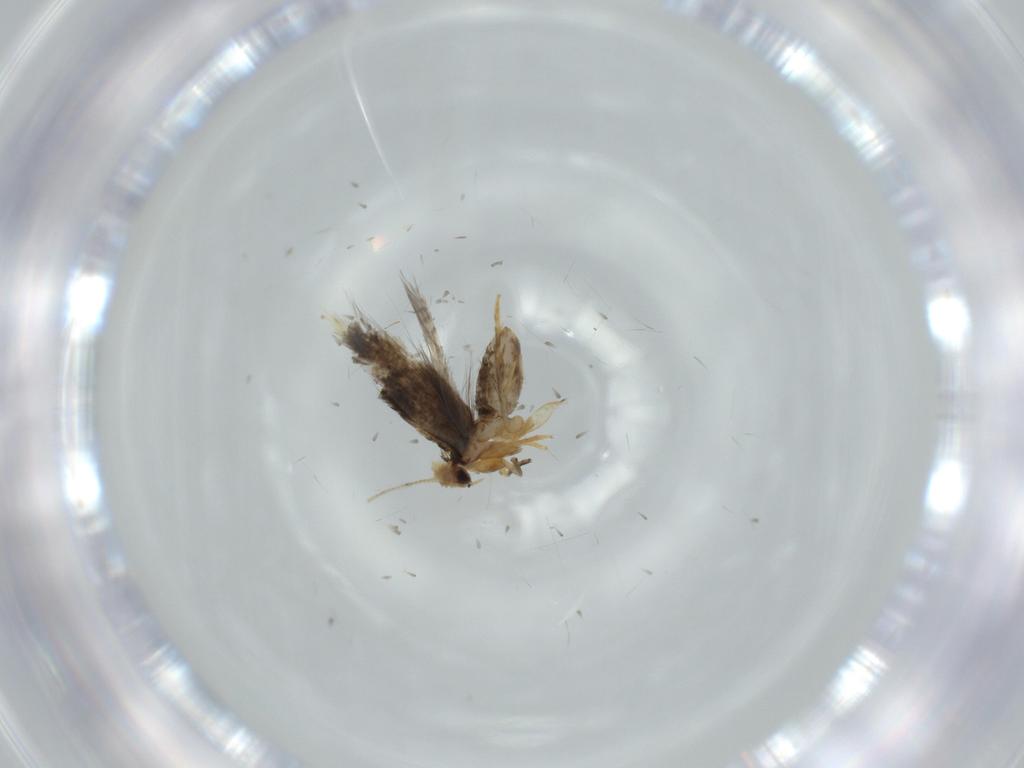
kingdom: Animalia
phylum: Arthropoda
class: Insecta
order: Lepidoptera
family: Nepticulidae
